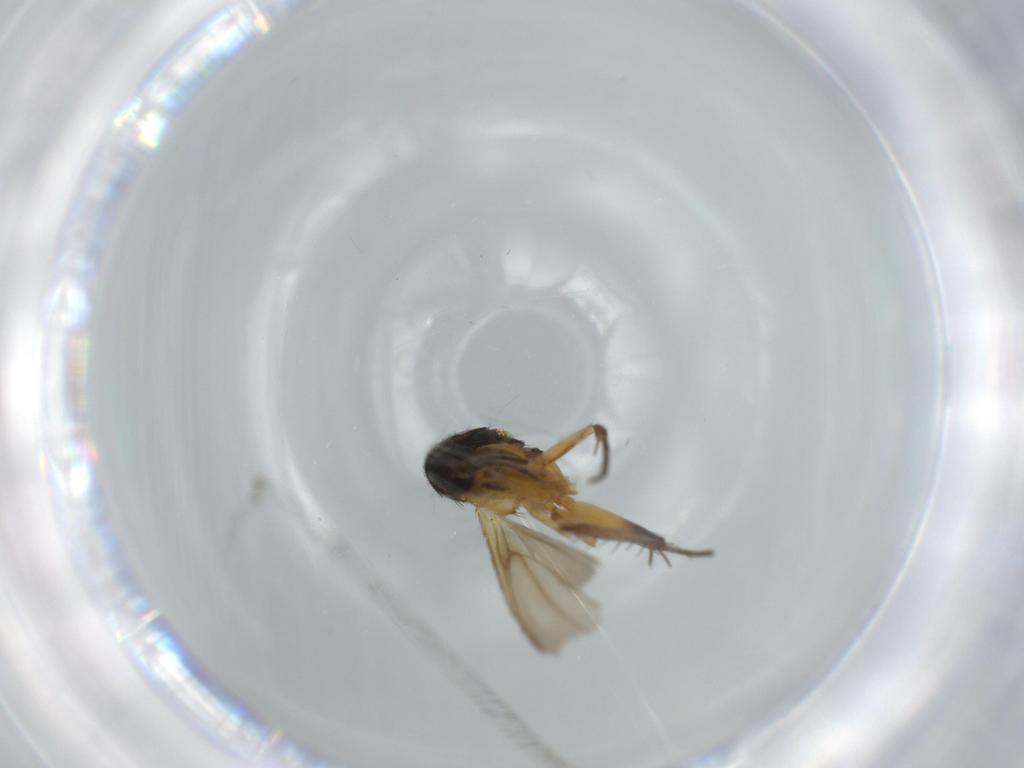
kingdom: Animalia
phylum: Arthropoda
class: Insecta
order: Diptera
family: Mycetophilidae
